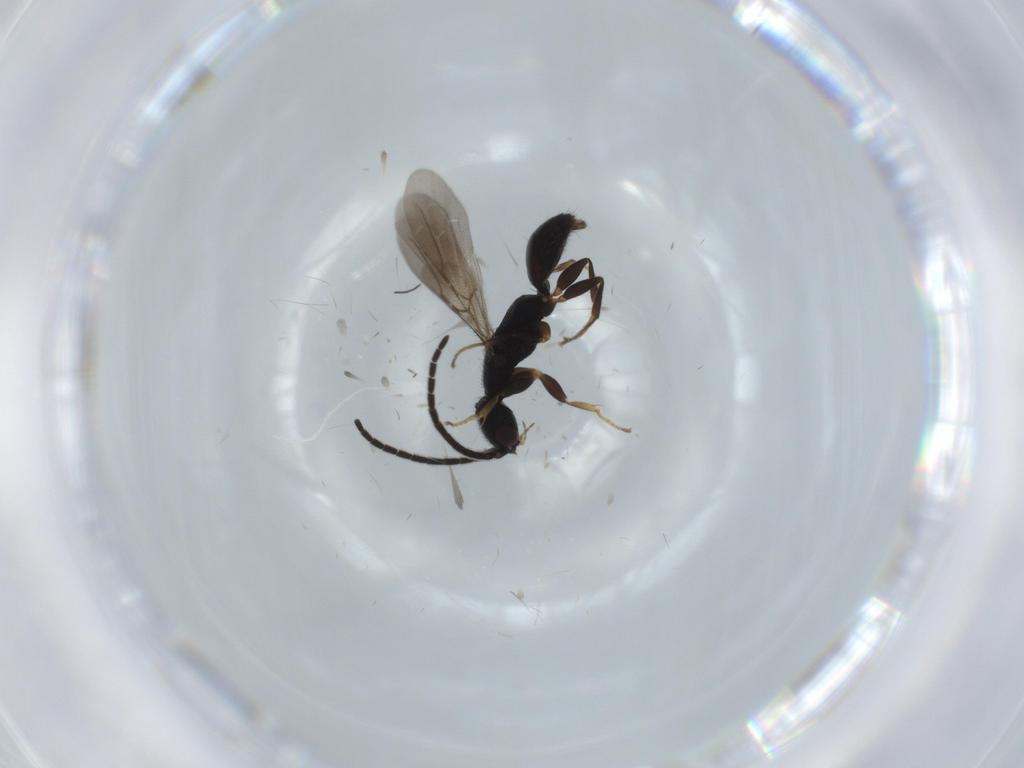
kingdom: Animalia
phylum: Arthropoda
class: Insecta
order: Hymenoptera
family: Bethylidae
